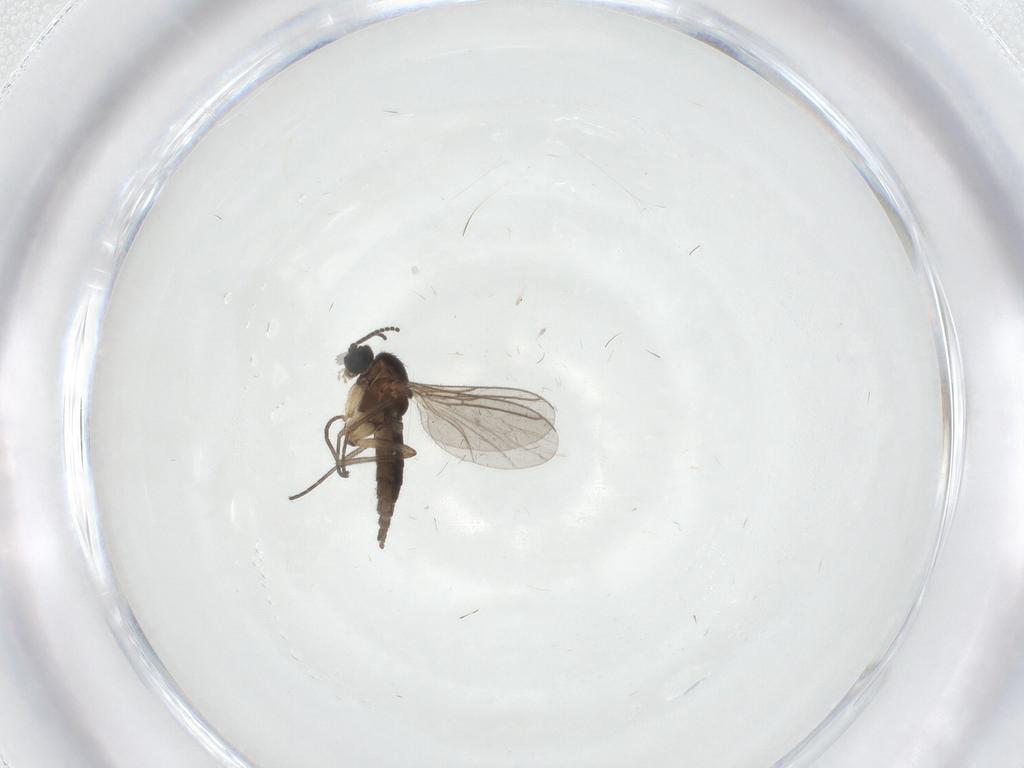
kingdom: Animalia
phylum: Arthropoda
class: Insecta
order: Diptera
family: Sciaridae
